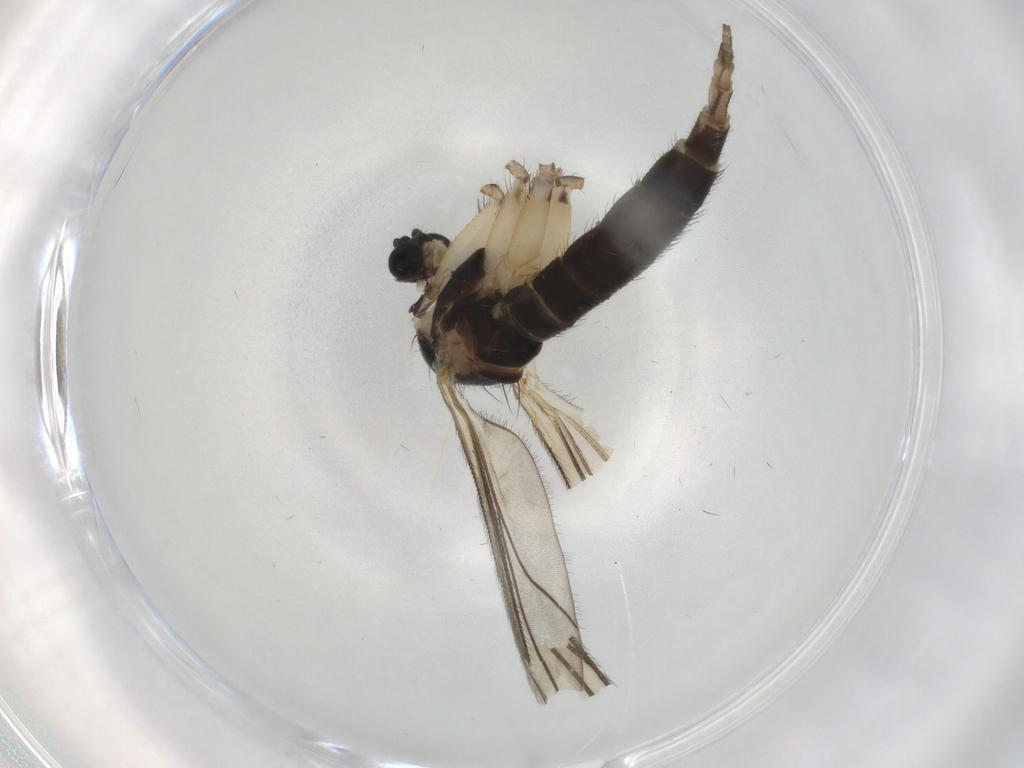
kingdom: Animalia
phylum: Arthropoda
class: Insecta
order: Diptera
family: Sciaridae
